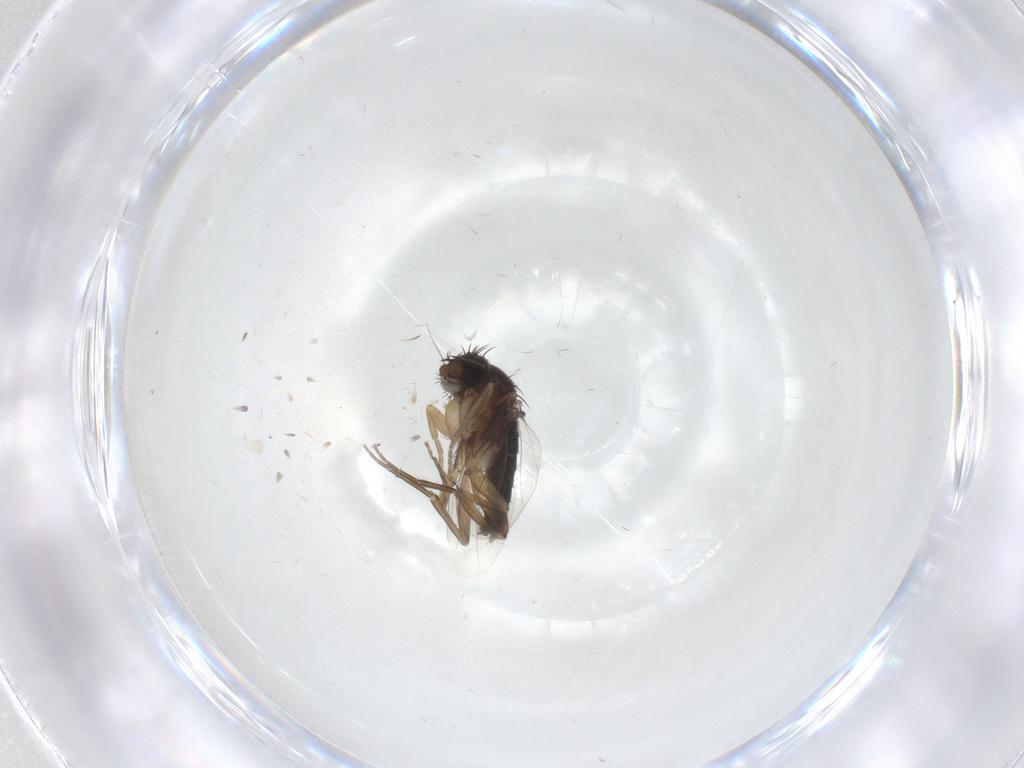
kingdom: Animalia
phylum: Arthropoda
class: Insecta
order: Diptera
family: Phoridae
